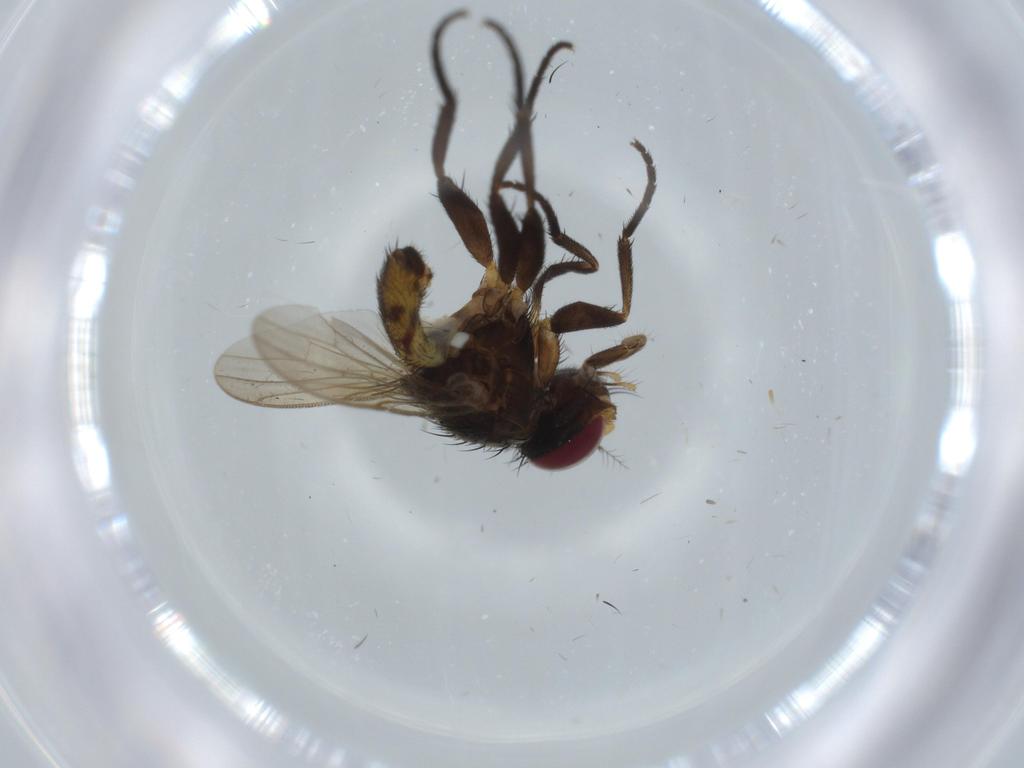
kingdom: Animalia
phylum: Arthropoda
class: Insecta
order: Diptera
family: Anthomyiidae
